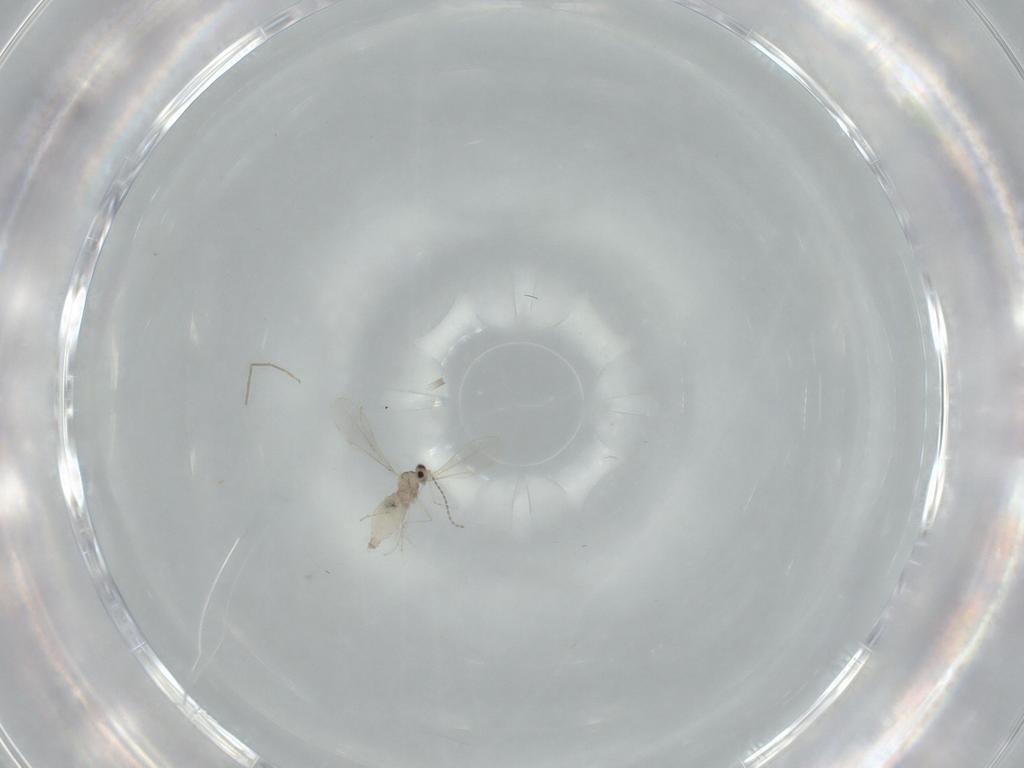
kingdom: Animalia
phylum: Arthropoda
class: Insecta
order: Diptera
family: Cecidomyiidae
